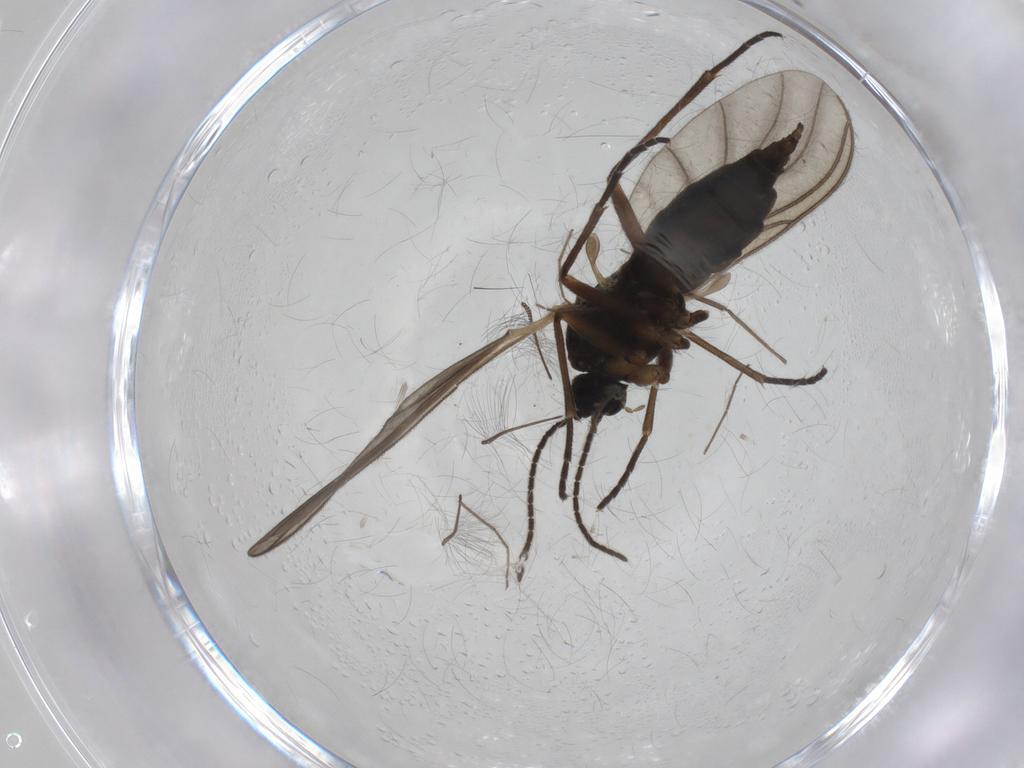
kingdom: Animalia
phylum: Arthropoda
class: Insecta
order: Diptera
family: Sciaridae
